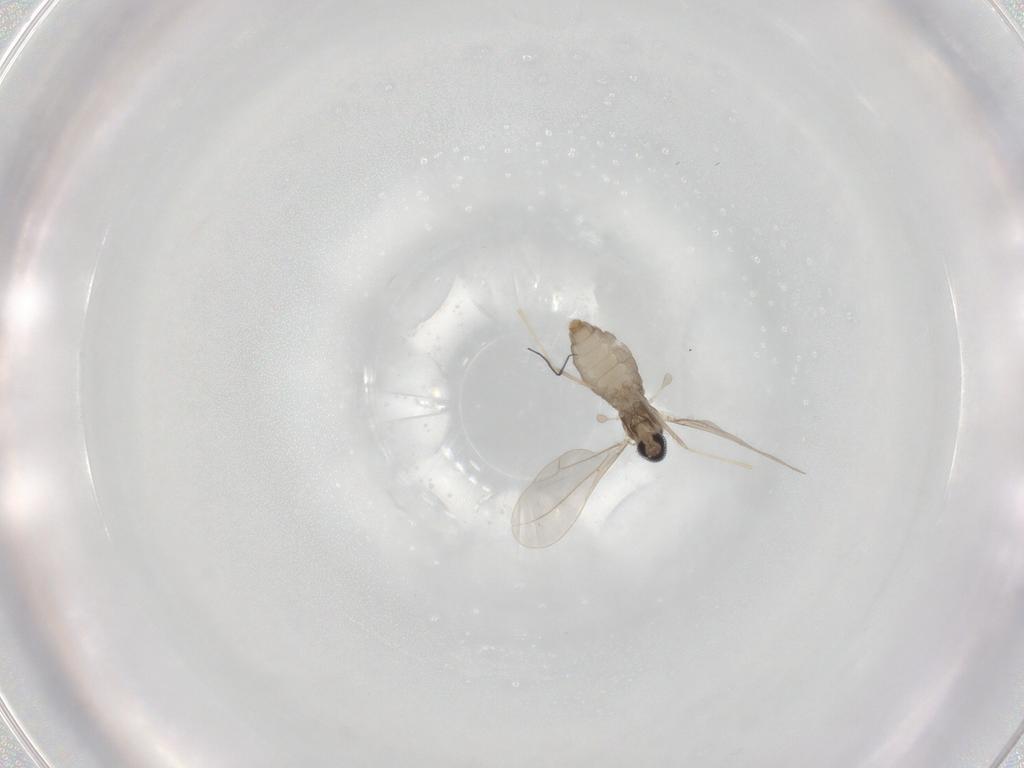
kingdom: Animalia
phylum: Arthropoda
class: Insecta
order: Diptera
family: Cecidomyiidae
